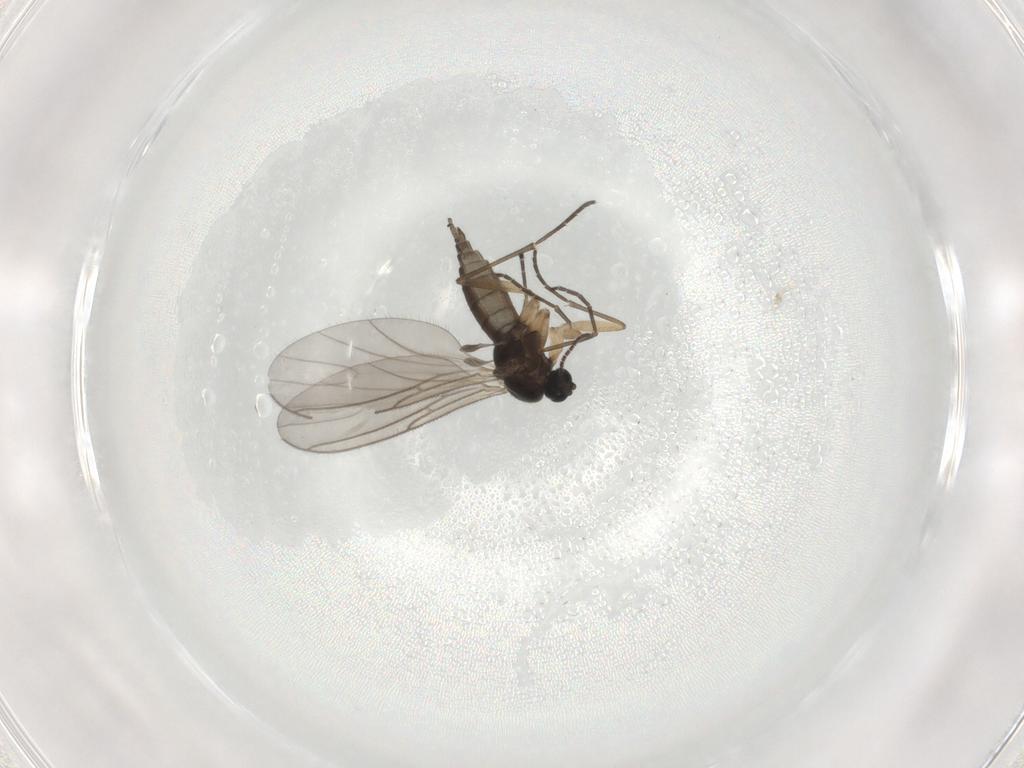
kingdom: Animalia
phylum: Arthropoda
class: Insecta
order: Diptera
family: Sciaridae
